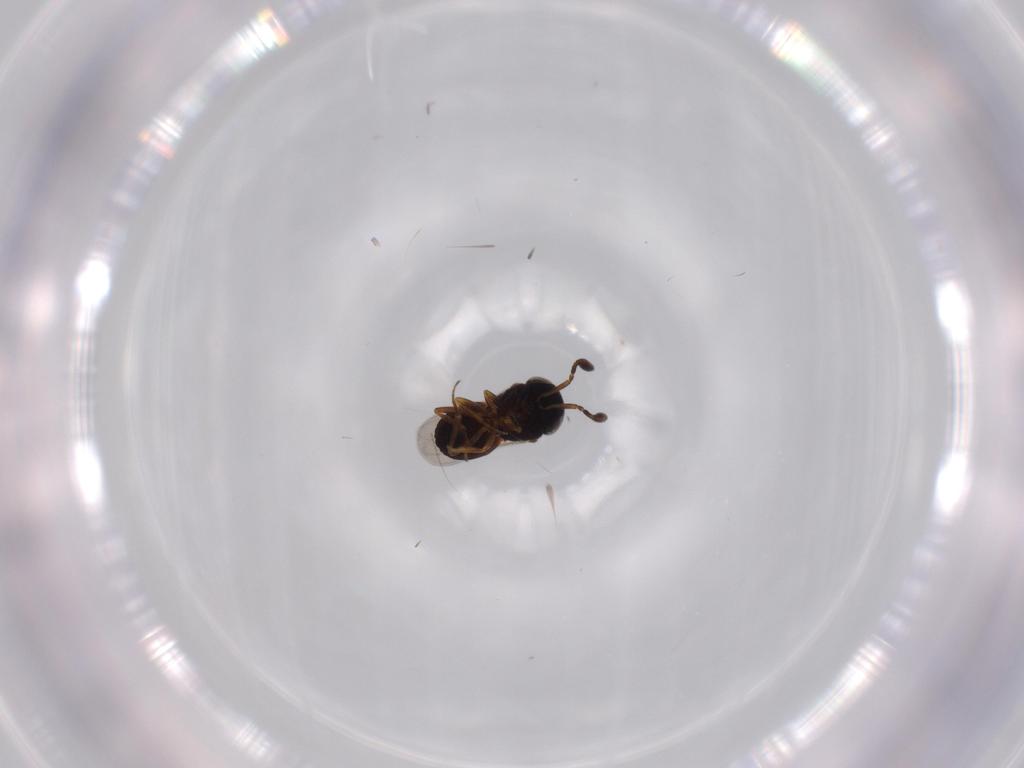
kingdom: Animalia
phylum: Arthropoda
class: Insecta
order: Hymenoptera
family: Scelionidae
